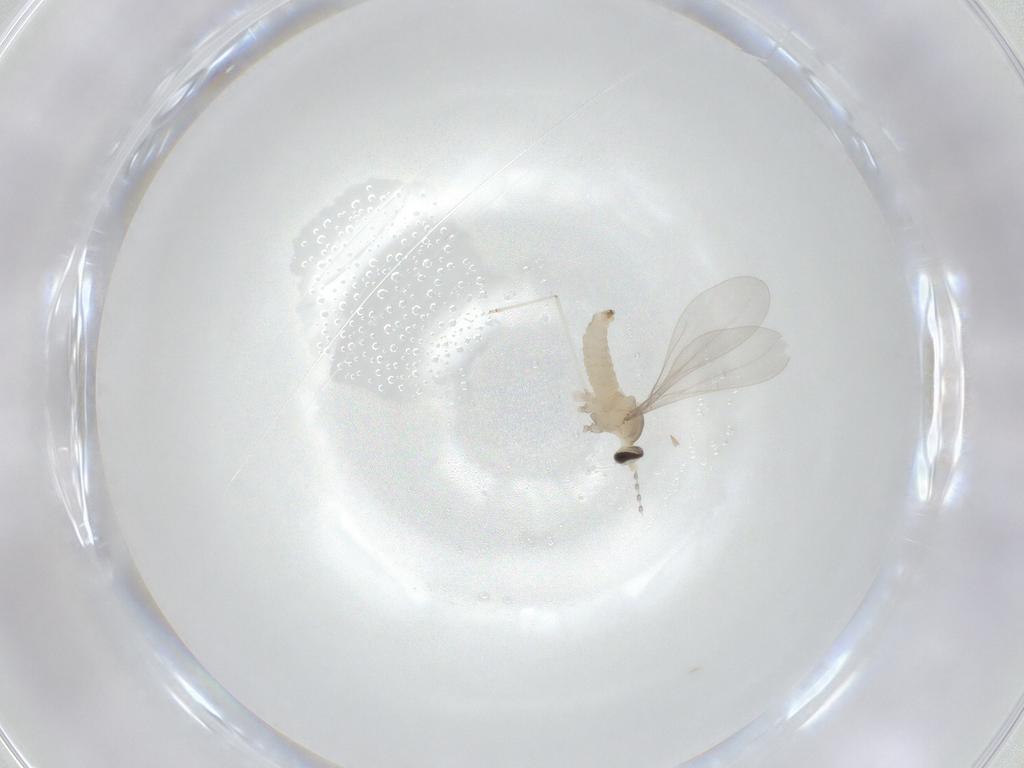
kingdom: Animalia
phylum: Arthropoda
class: Insecta
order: Diptera
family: Cecidomyiidae
